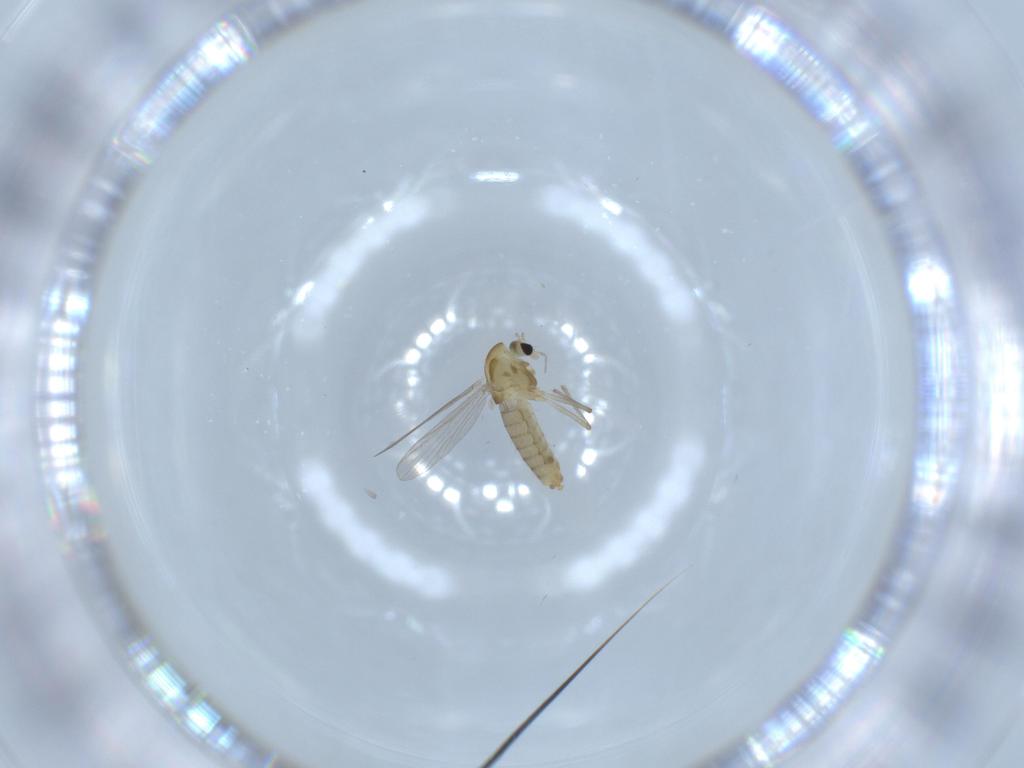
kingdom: Animalia
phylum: Arthropoda
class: Insecta
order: Diptera
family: Chironomidae
